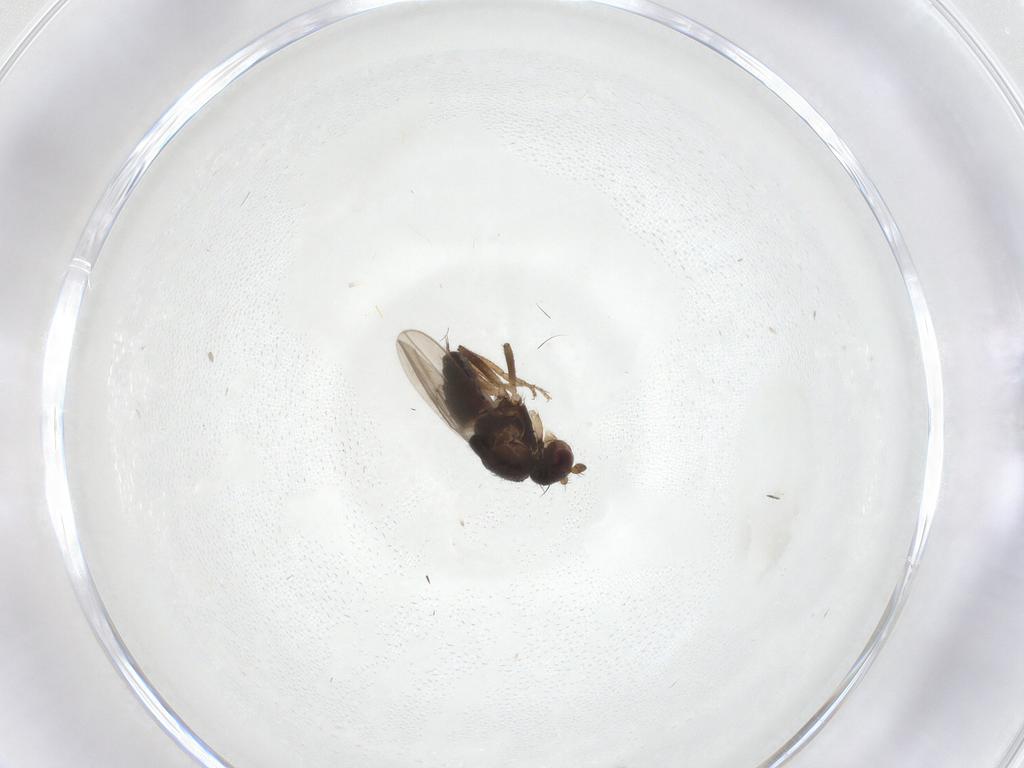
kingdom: Animalia
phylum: Arthropoda
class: Insecta
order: Diptera
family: Sphaeroceridae
